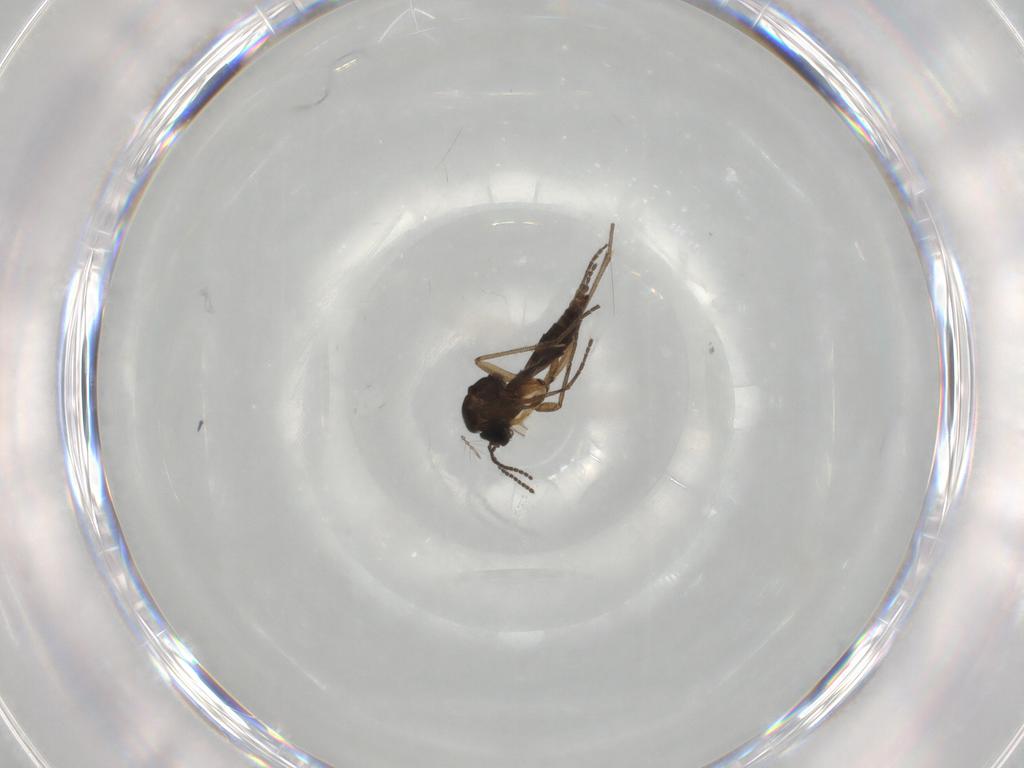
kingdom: Animalia
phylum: Arthropoda
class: Insecta
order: Diptera
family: Sciaridae
